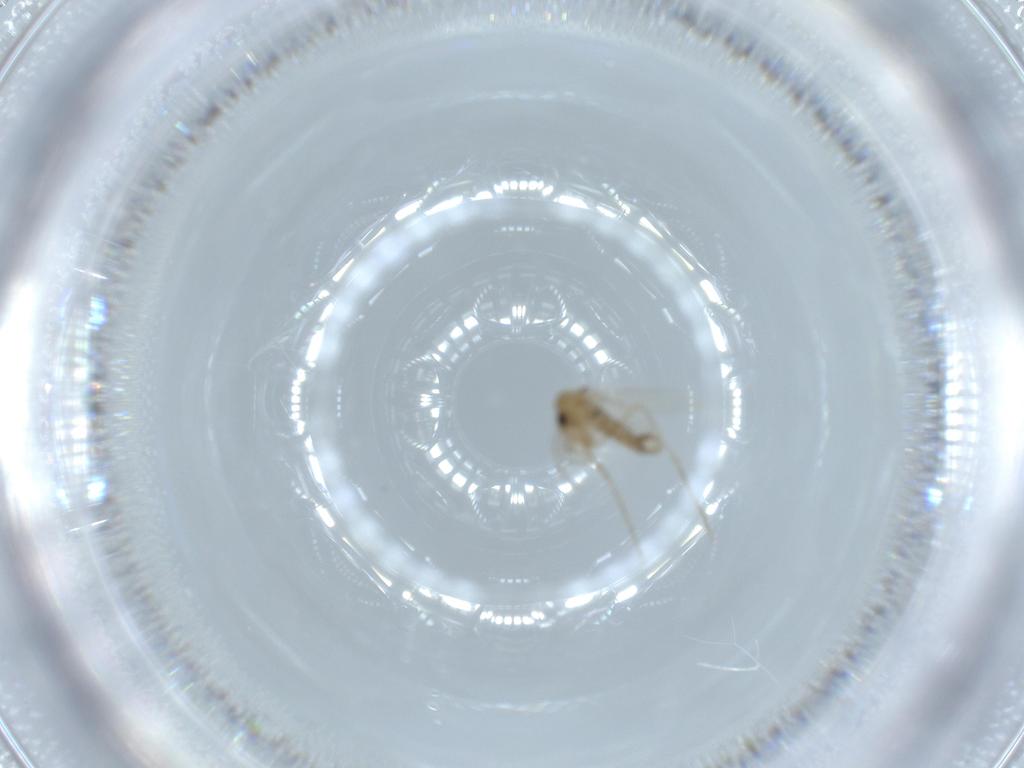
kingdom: Animalia
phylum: Arthropoda
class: Insecta
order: Diptera
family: Psychodidae
